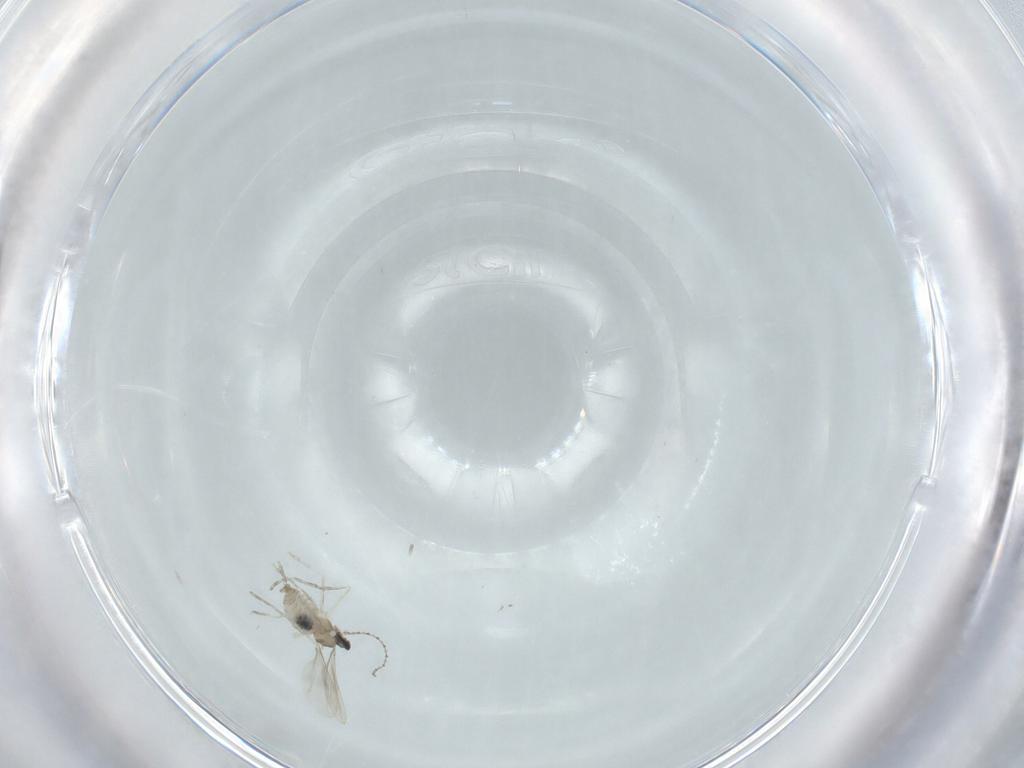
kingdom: Animalia
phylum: Arthropoda
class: Insecta
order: Diptera
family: Cecidomyiidae
